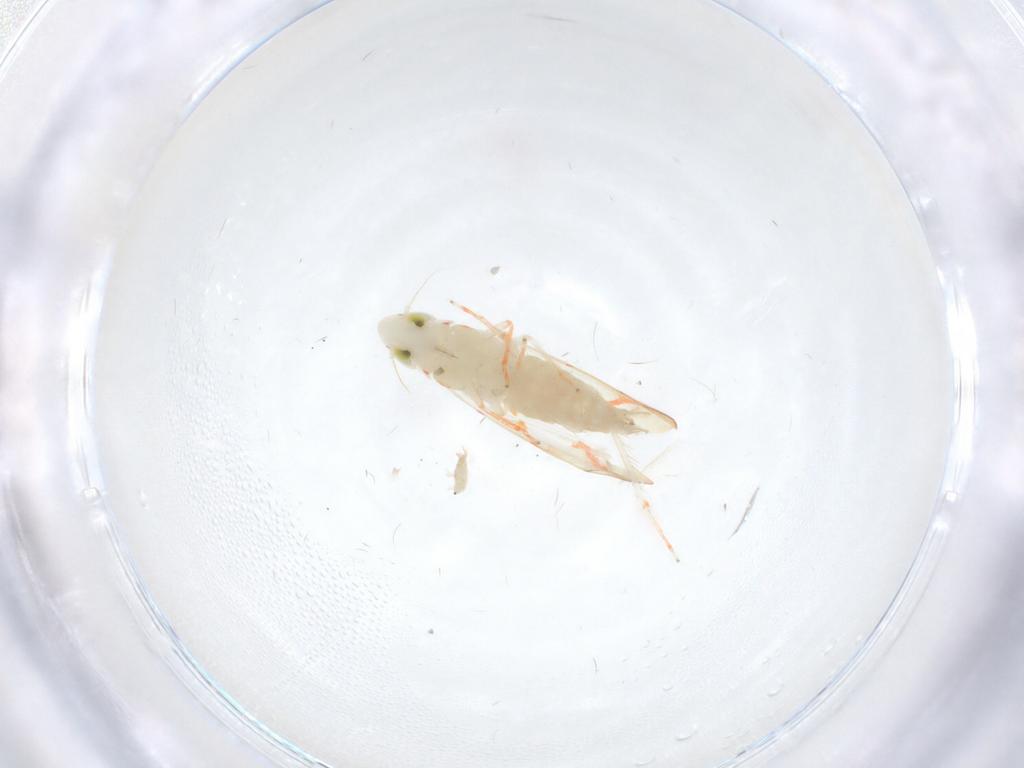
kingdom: Animalia
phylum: Arthropoda
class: Insecta
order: Hemiptera
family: Cicadellidae
